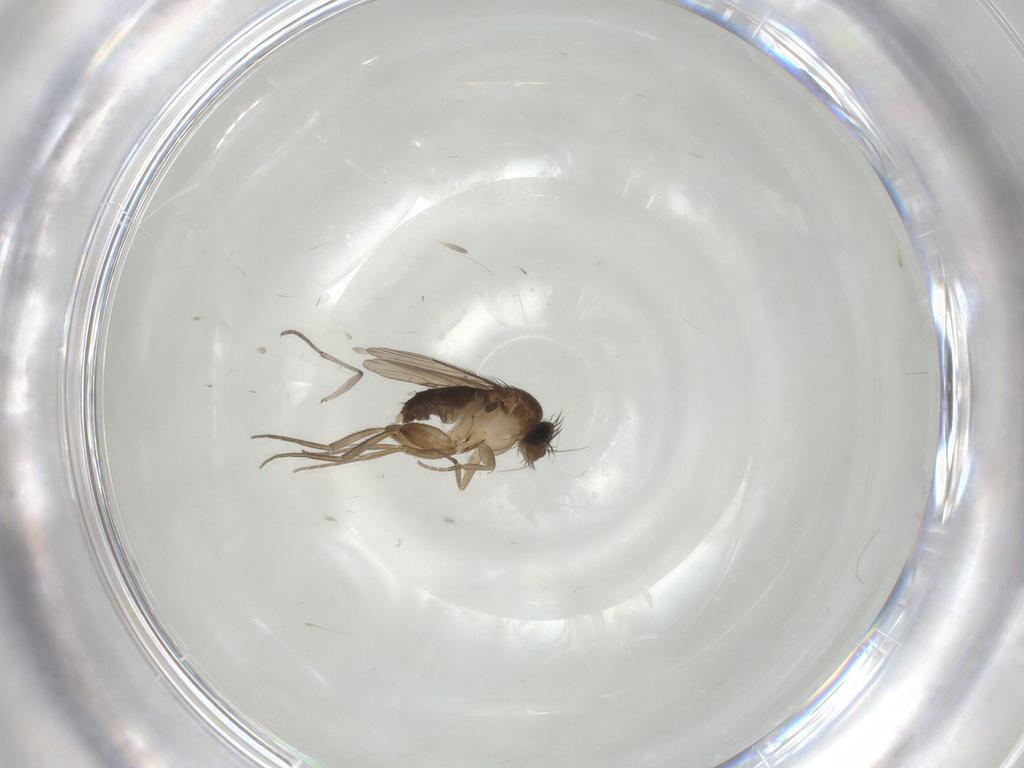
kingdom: Animalia
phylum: Arthropoda
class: Insecta
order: Diptera
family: Phoridae
